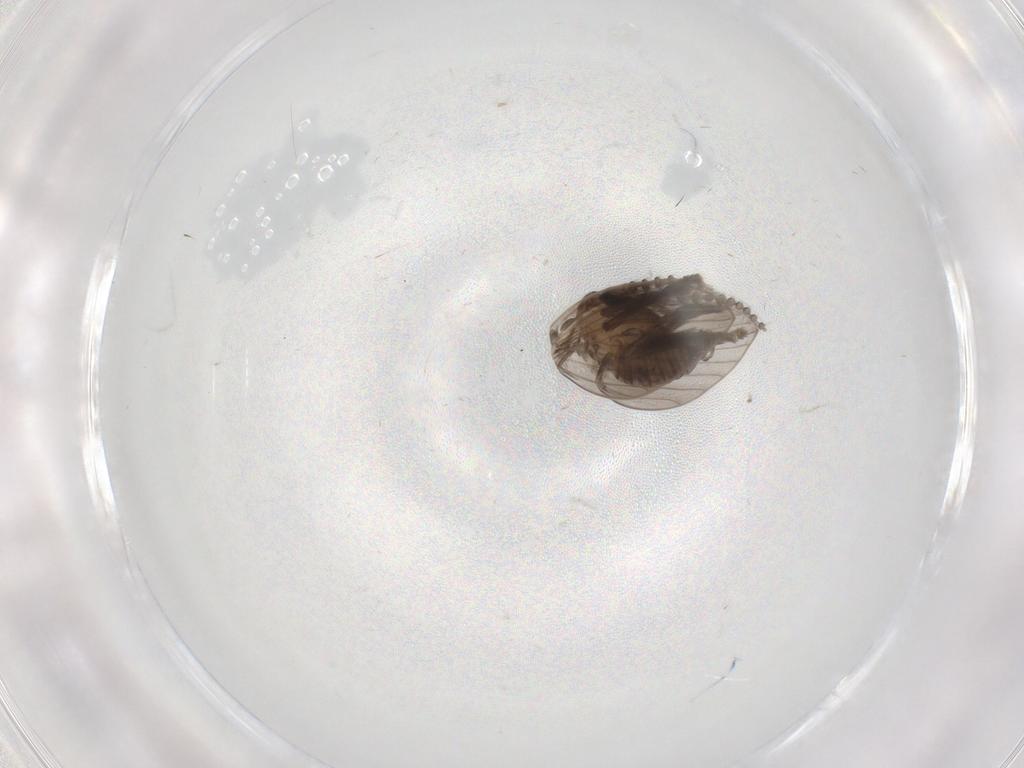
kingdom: Animalia
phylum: Arthropoda
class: Insecta
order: Diptera
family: Psychodidae
